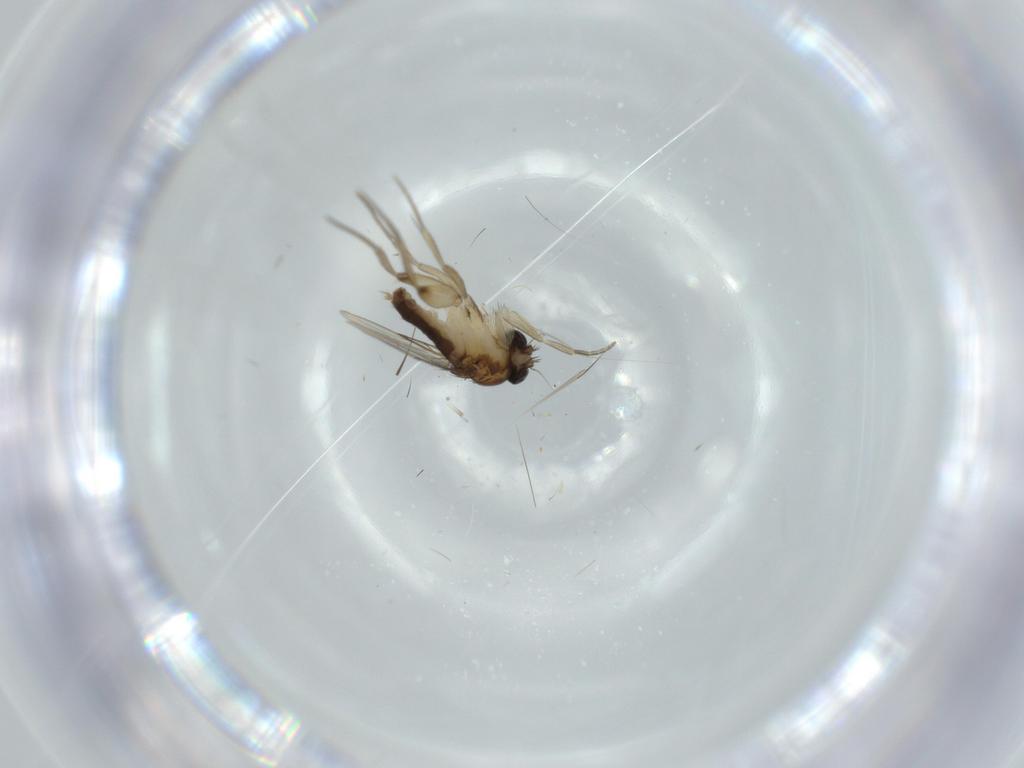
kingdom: Animalia
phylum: Arthropoda
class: Insecta
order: Diptera
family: Phoridae
